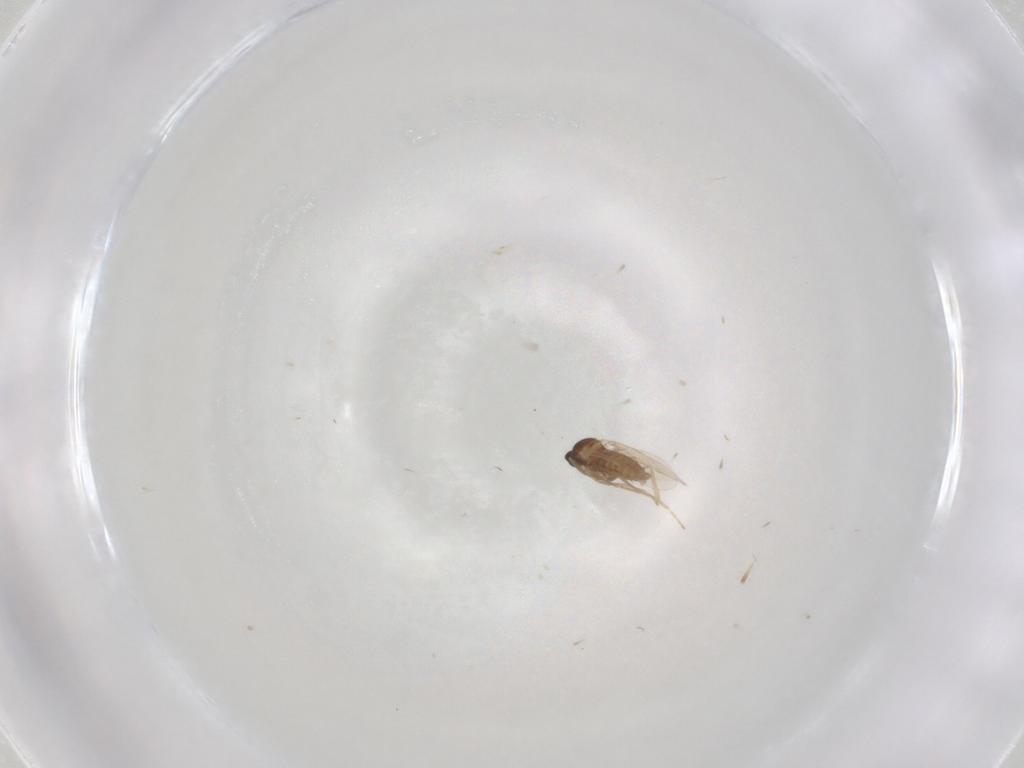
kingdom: Animalia
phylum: Arthropoda
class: Insecta
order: Diptera
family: Cecidomyiidae
